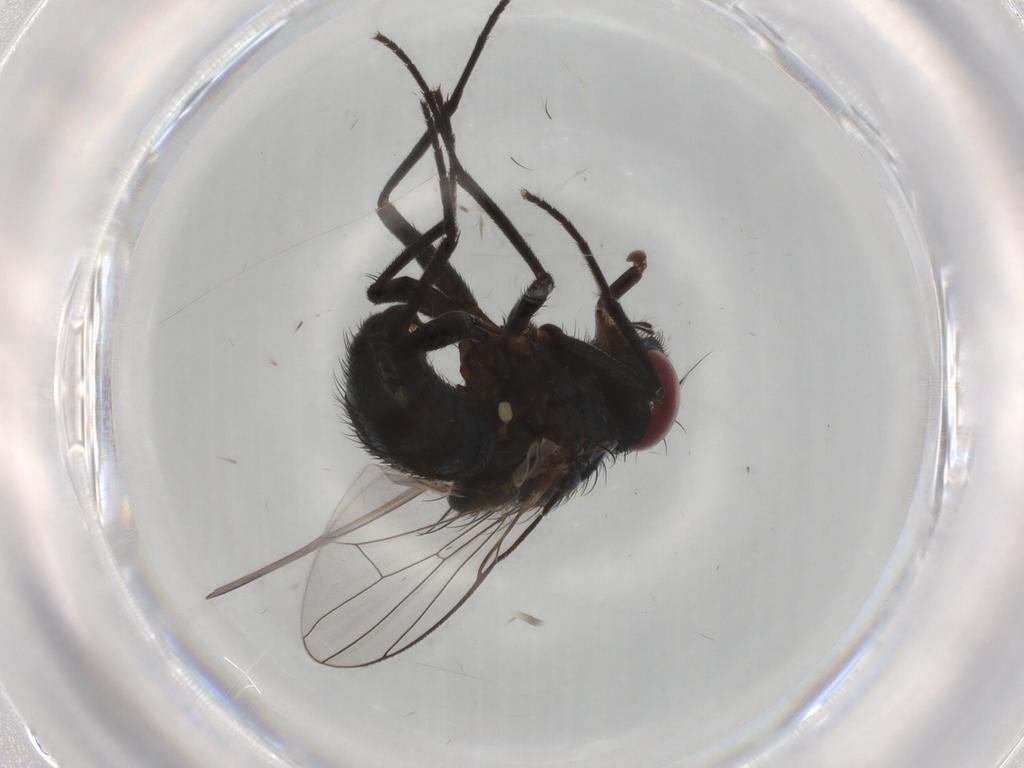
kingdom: Animalia
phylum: Arthropoda
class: Insecta
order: Diptera
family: Muscidae
